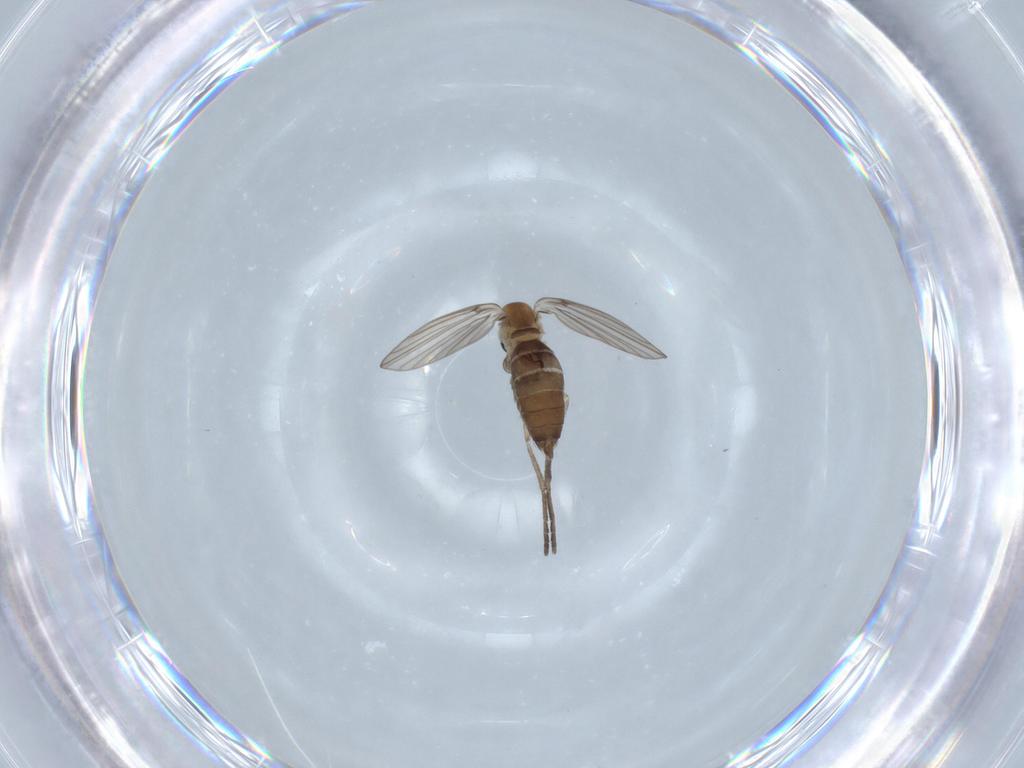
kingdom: Animalia
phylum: Arthropoda
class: Insecta
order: Diptera
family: Psychodidae
